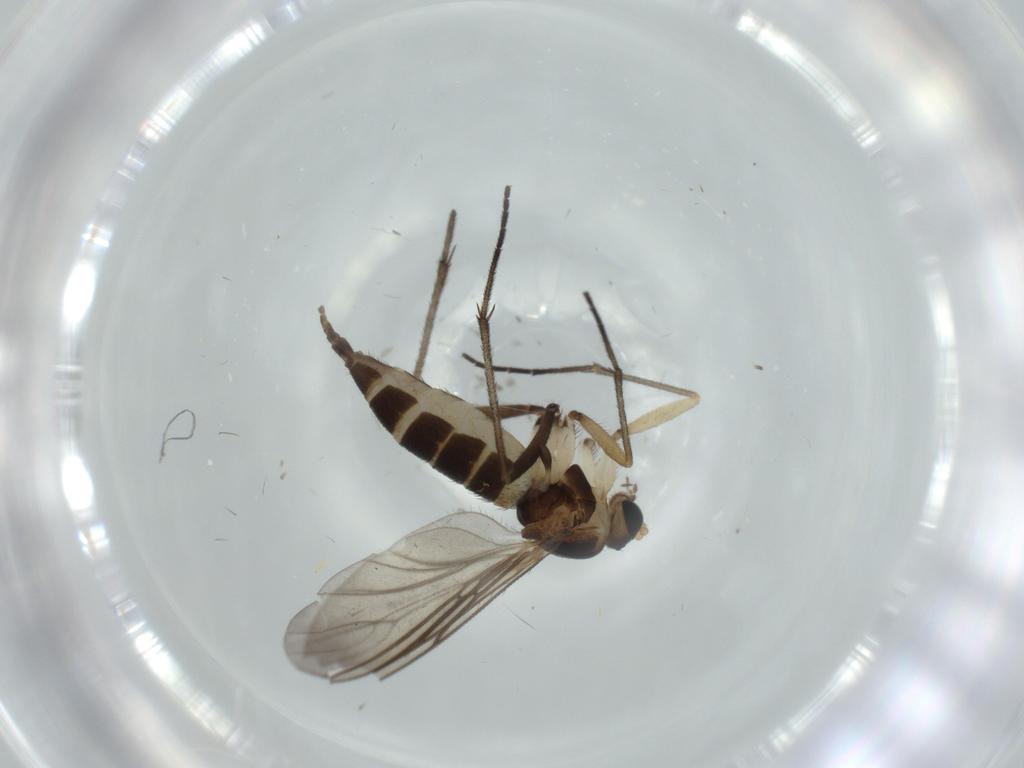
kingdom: Animalia
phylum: Arthropoda
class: Insecta
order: Diptera
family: Sciaridae
